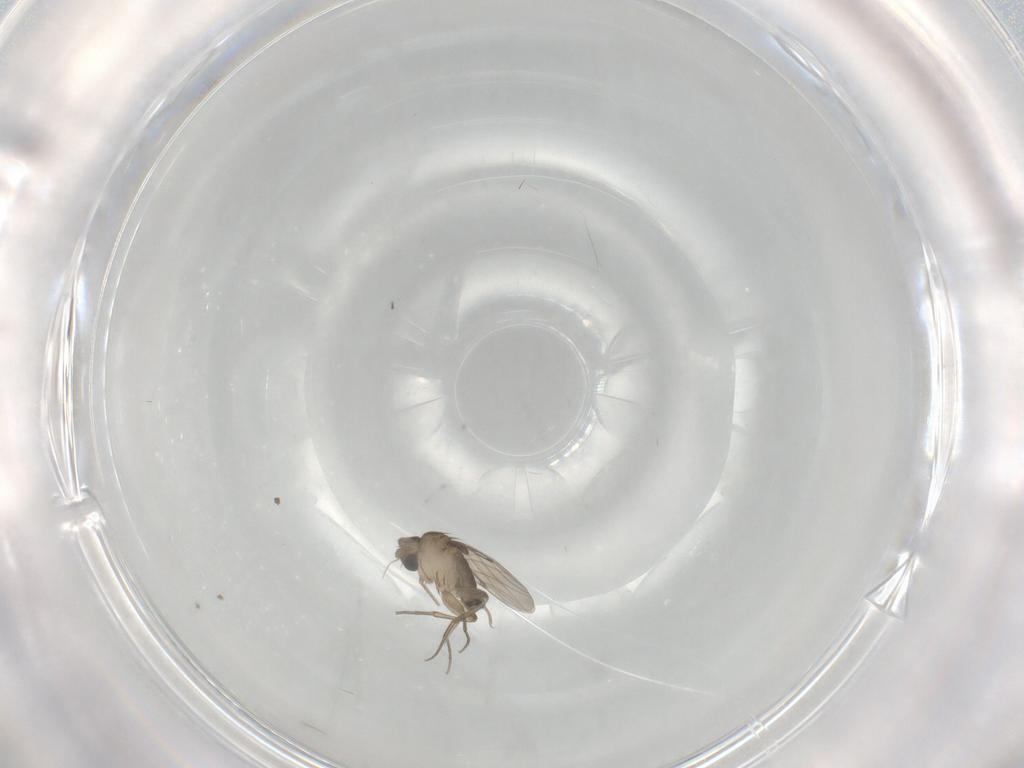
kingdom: Animalia
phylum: Arthropoda
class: Insecta
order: Diptera
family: Phoridae
